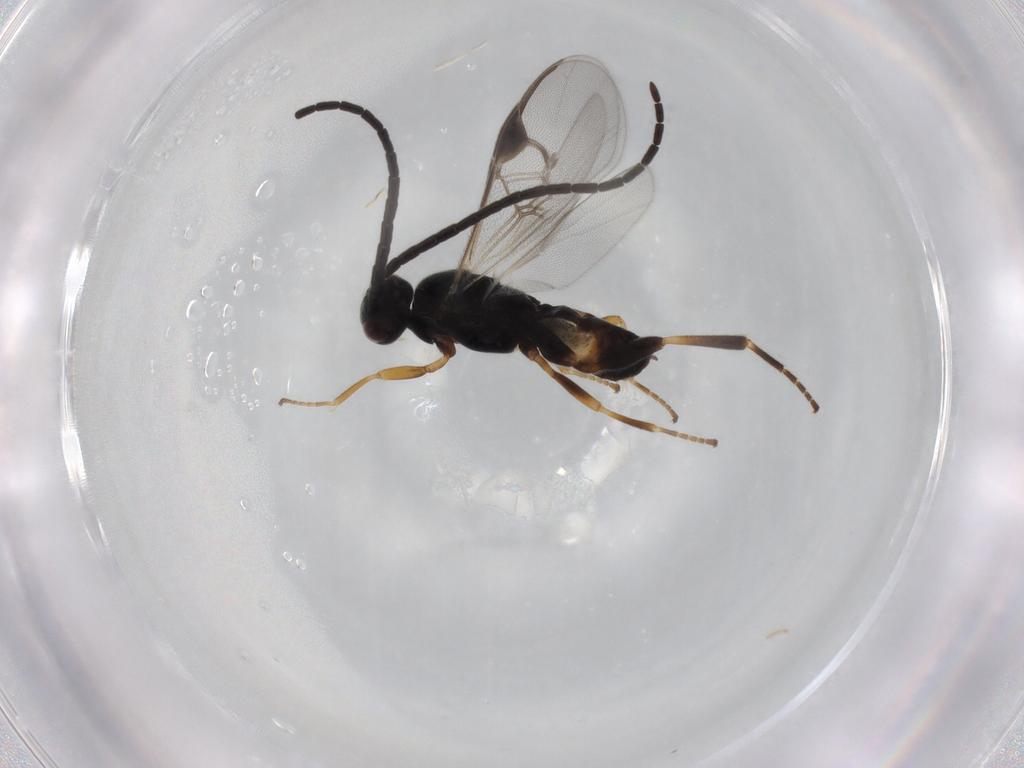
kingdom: Animalia
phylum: Arthropoda
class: Insecta
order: Hymenoptera
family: Braconidae
